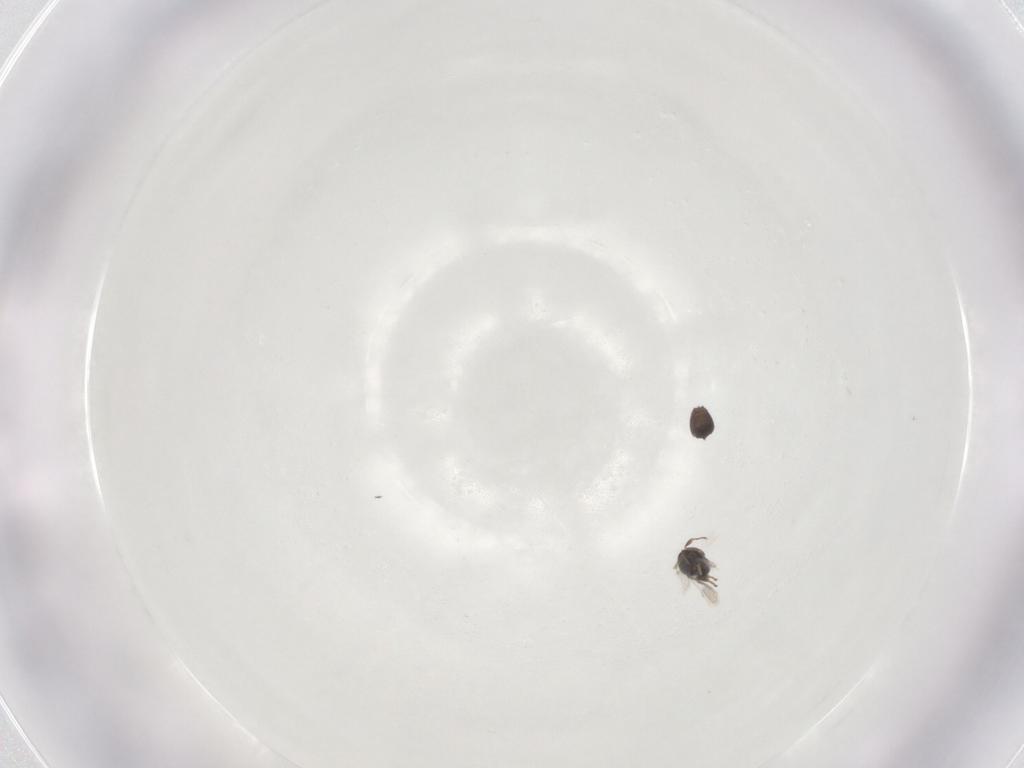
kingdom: Animalia
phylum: Arthropoda
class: Insecta
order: Hymenoptera
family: Scelionidae
